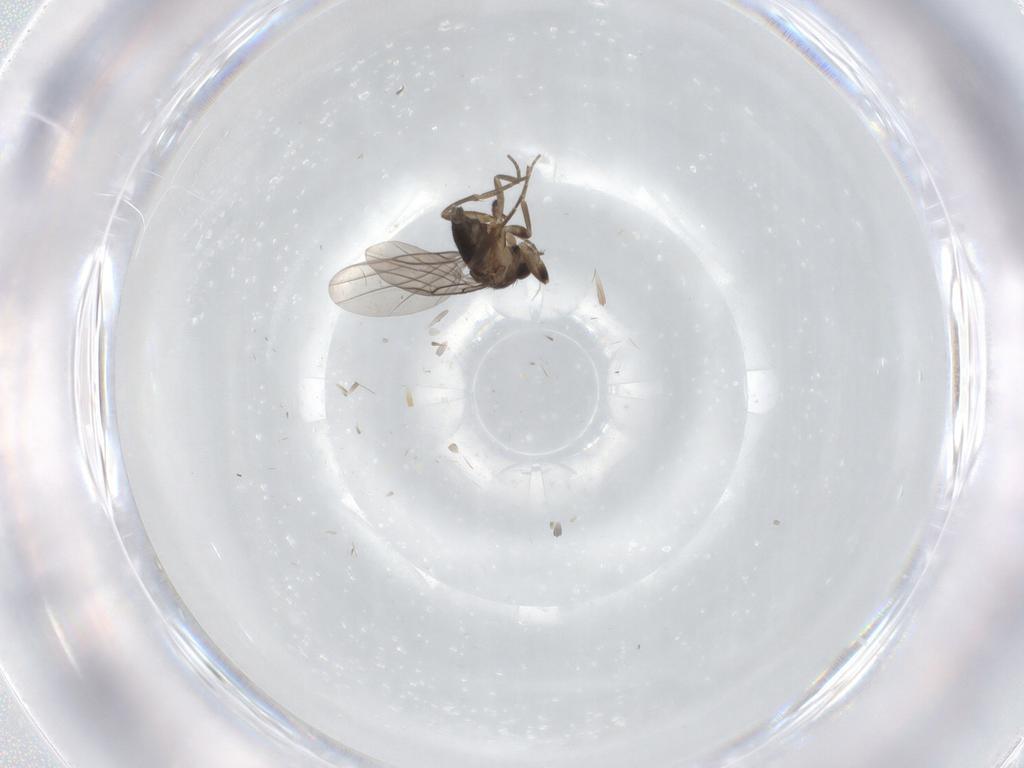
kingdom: Animalia
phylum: Arthropoda
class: Insecta
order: Diptera
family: Phoridae
